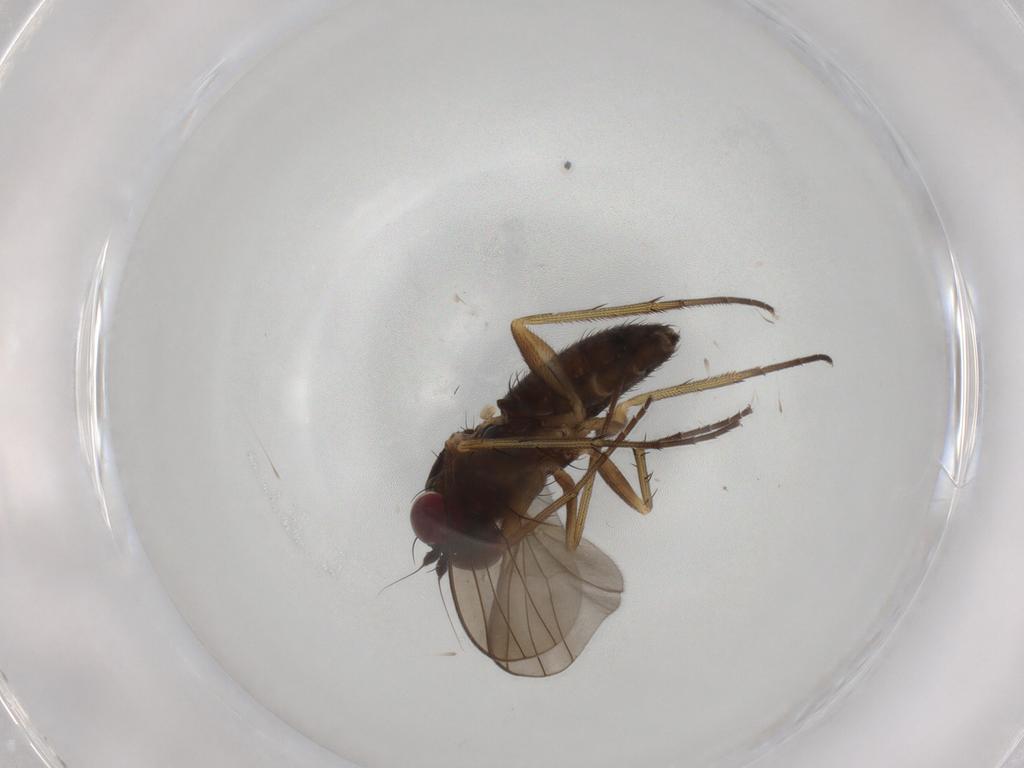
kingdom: Animalia
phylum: Arthropoda
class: Insecta
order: Diptera
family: Dolichopodidae
